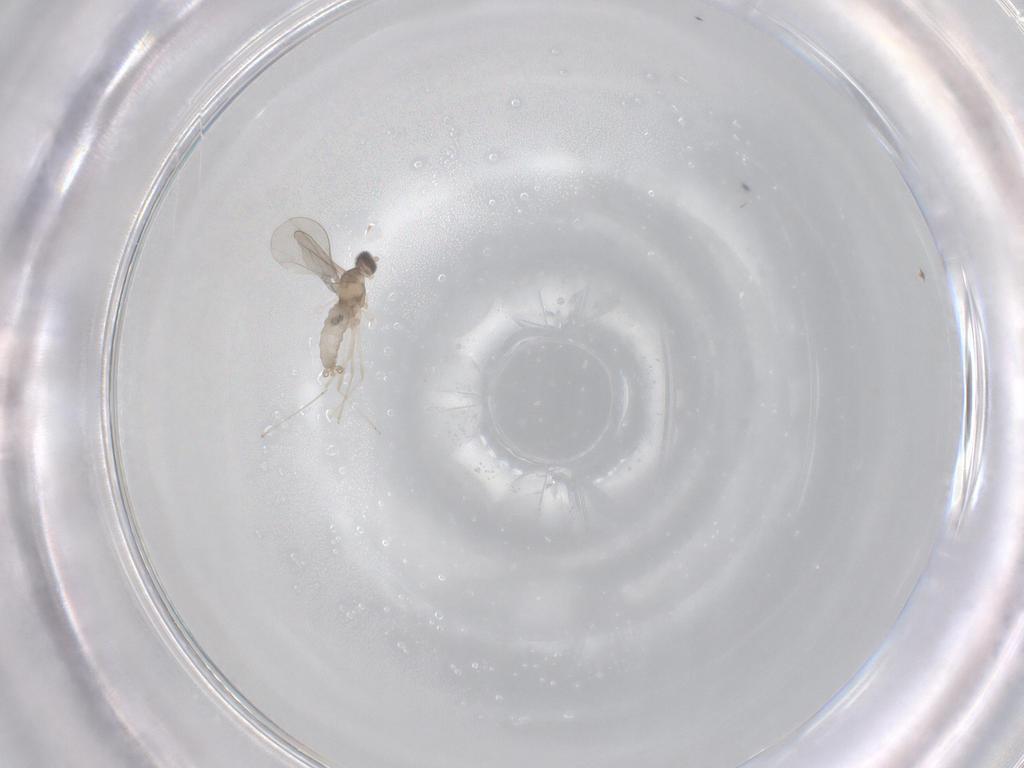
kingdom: Animalia
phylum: Arthropoda
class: Insecta
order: Diptera
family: Cecidomyiidae
